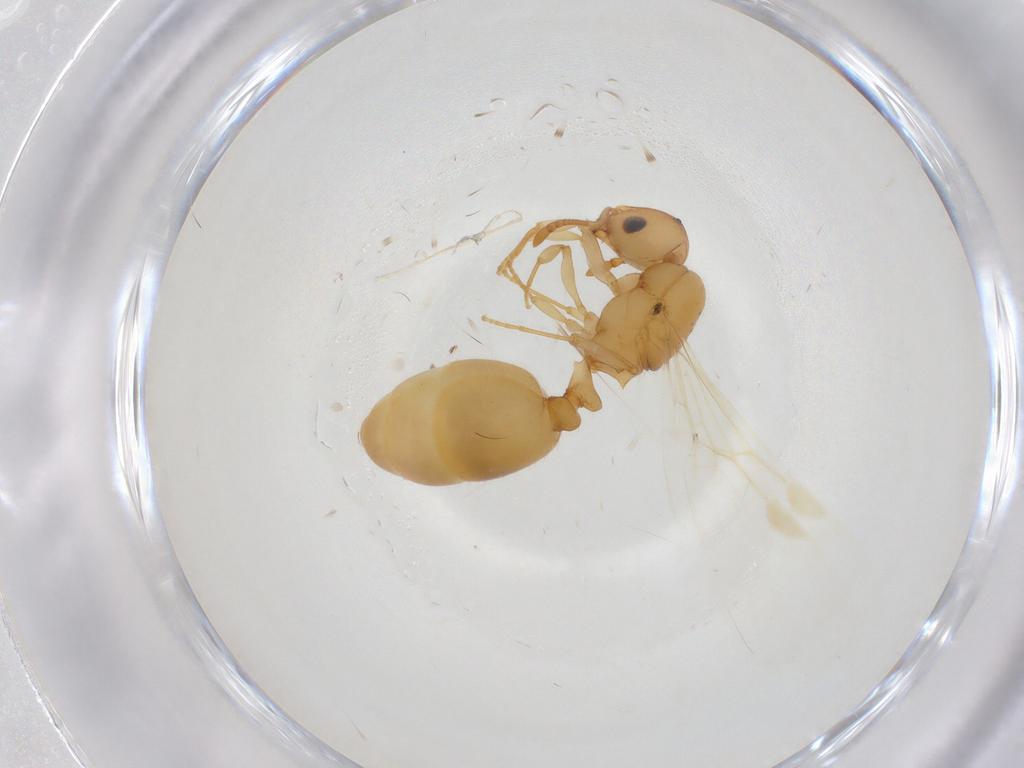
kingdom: Animalia
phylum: Arthropoda
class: Insecta
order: Hymenoptera
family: Formicidae
